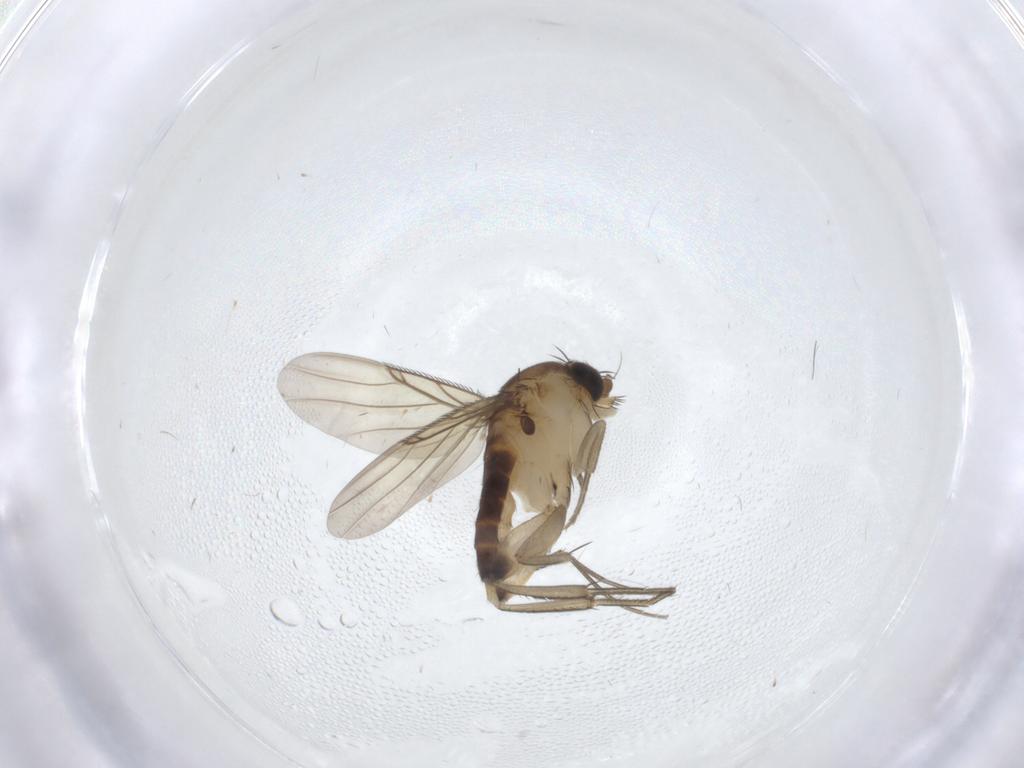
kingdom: Animalia
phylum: Arthropoda
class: Insecta
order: Diptera
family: Phoridae
